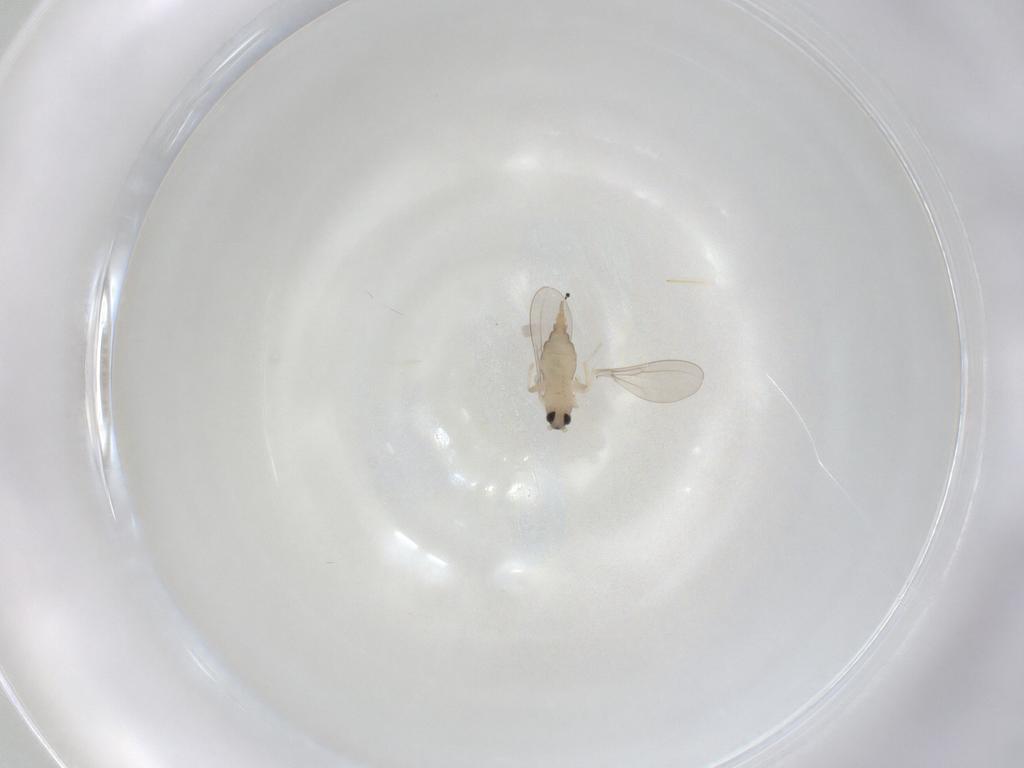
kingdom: Animalia
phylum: Arthropoda
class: Insecta
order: Diptera
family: Cecidomyiidae
